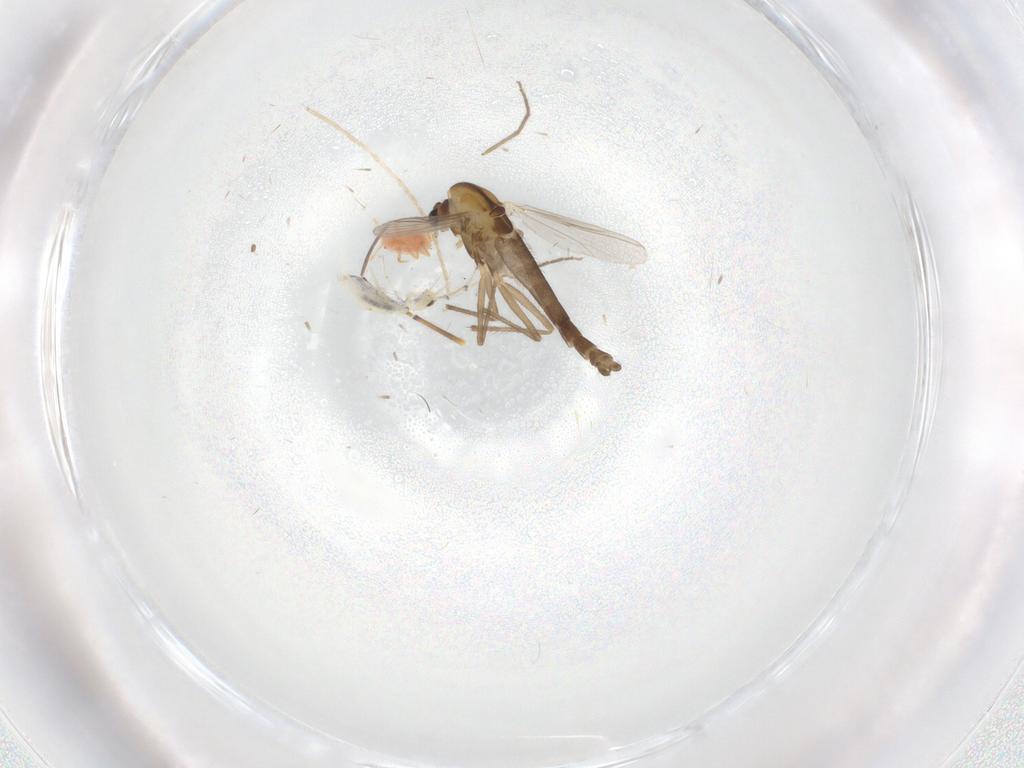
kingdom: Animalia
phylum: Arthropoda
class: Insecta
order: Diptera
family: Chironomidae
